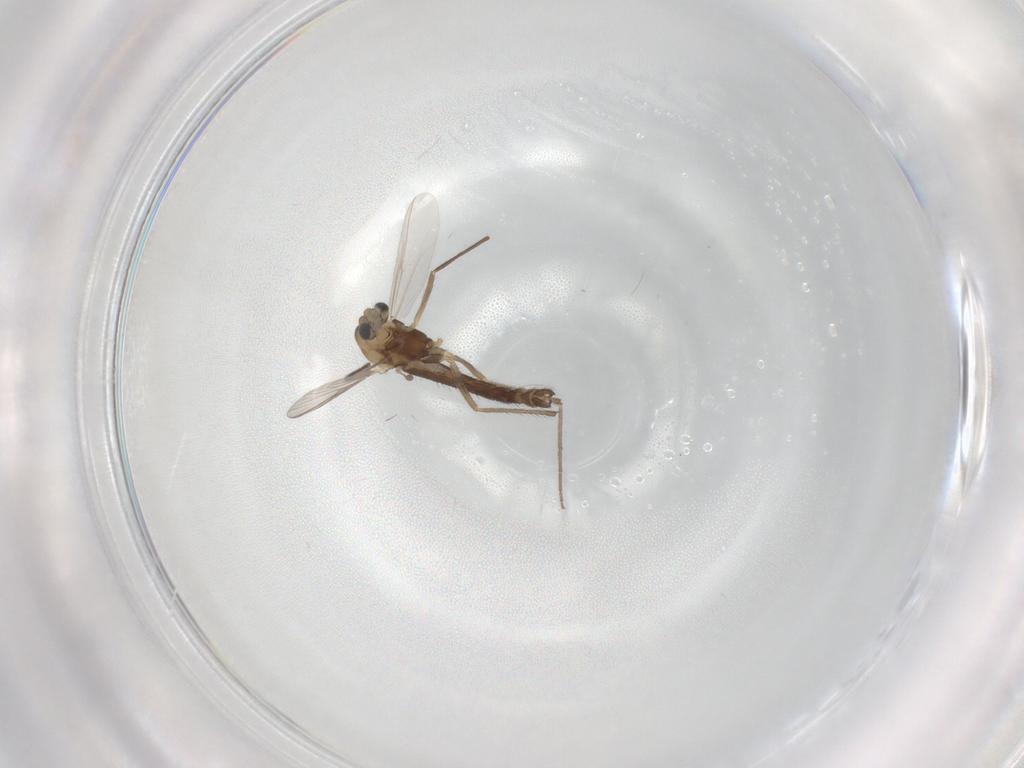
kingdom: Animalia
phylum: Arthropoda
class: Insecta
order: Diptera
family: Chironomidae
